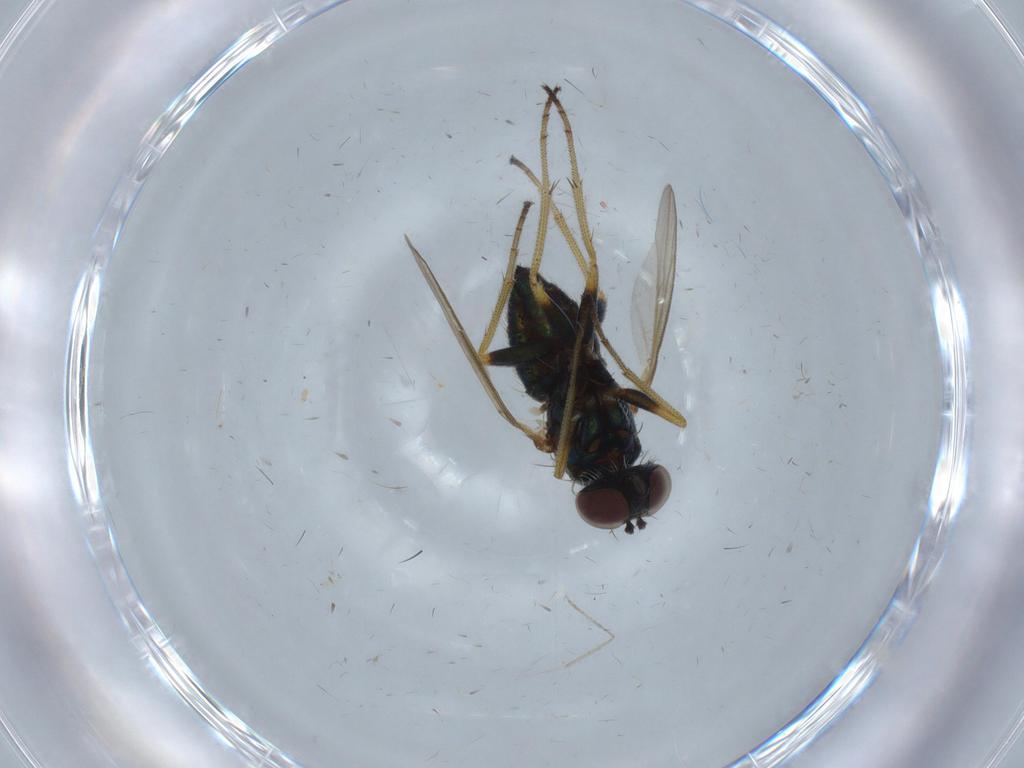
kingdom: Animalia
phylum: Arthropoda
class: Insecta
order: Diptera
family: Dolichopodidae
